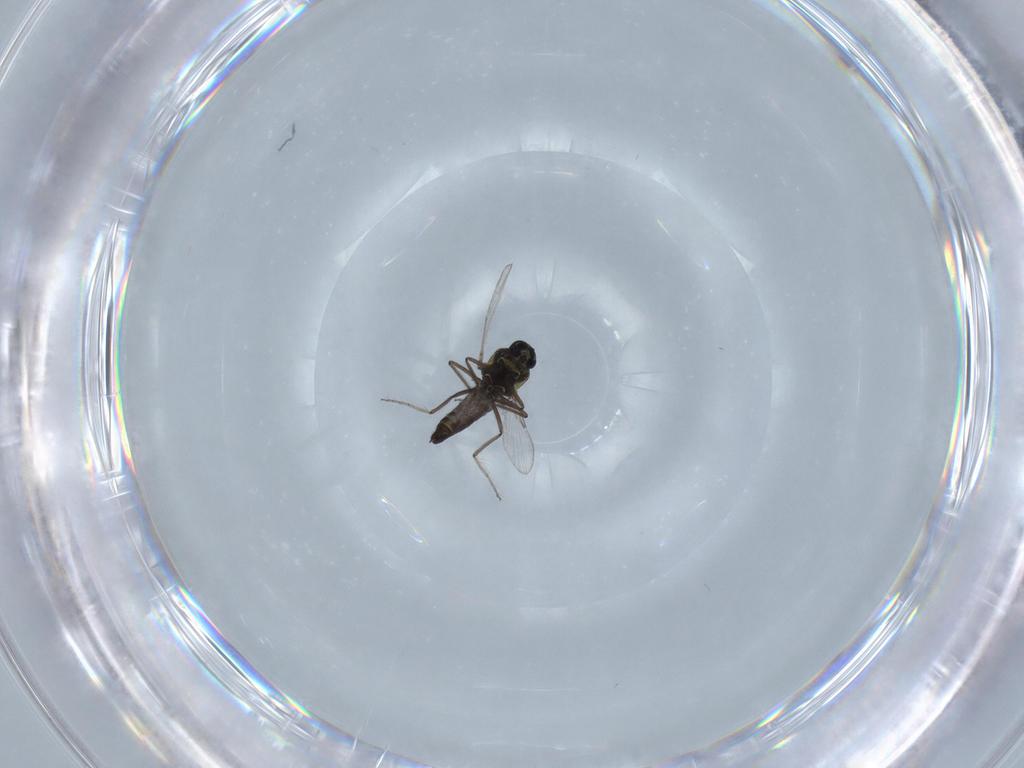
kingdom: Animalia
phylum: Arthropoda
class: Insecta
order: Diptera
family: Ceratopogonidae
